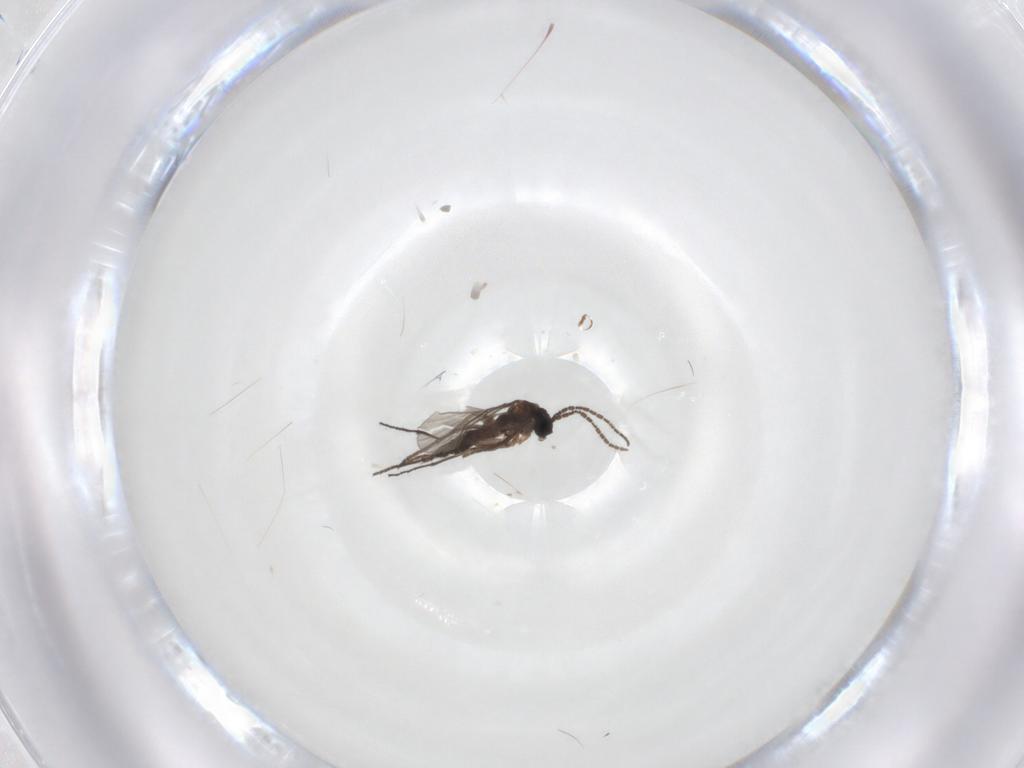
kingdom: Animalia
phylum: Arthropoda
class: Insecta
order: Diptera
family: Sciaridae
